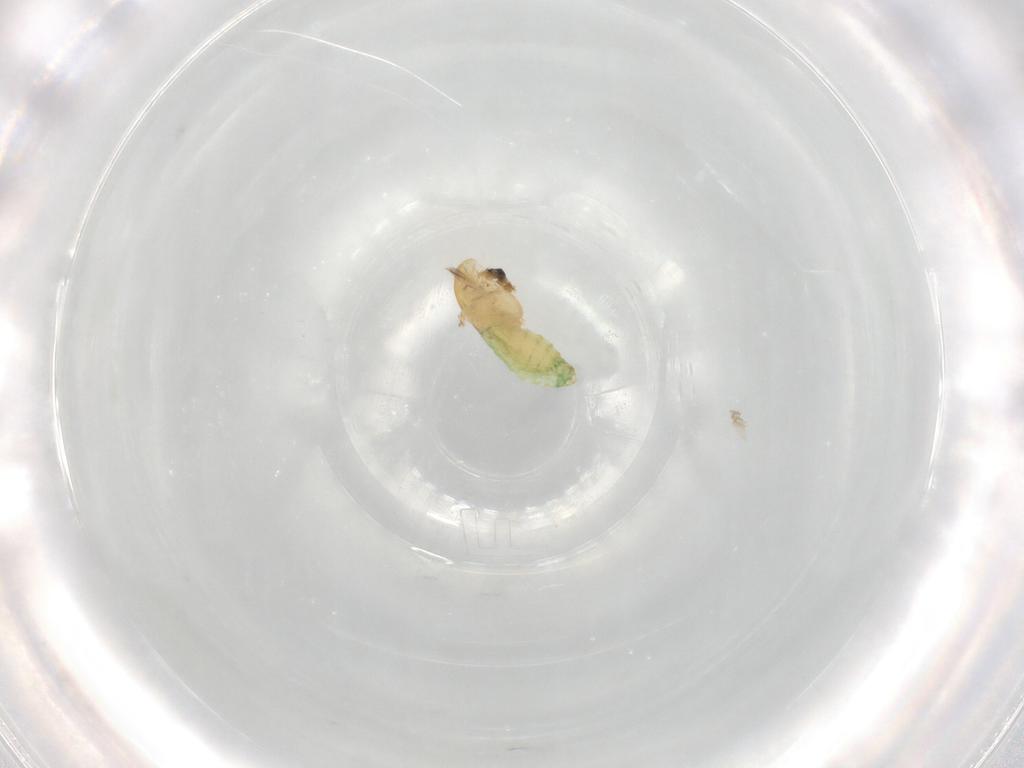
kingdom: Animalia
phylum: Arthropoda
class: Insecta
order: Diptera
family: Chironomidae
